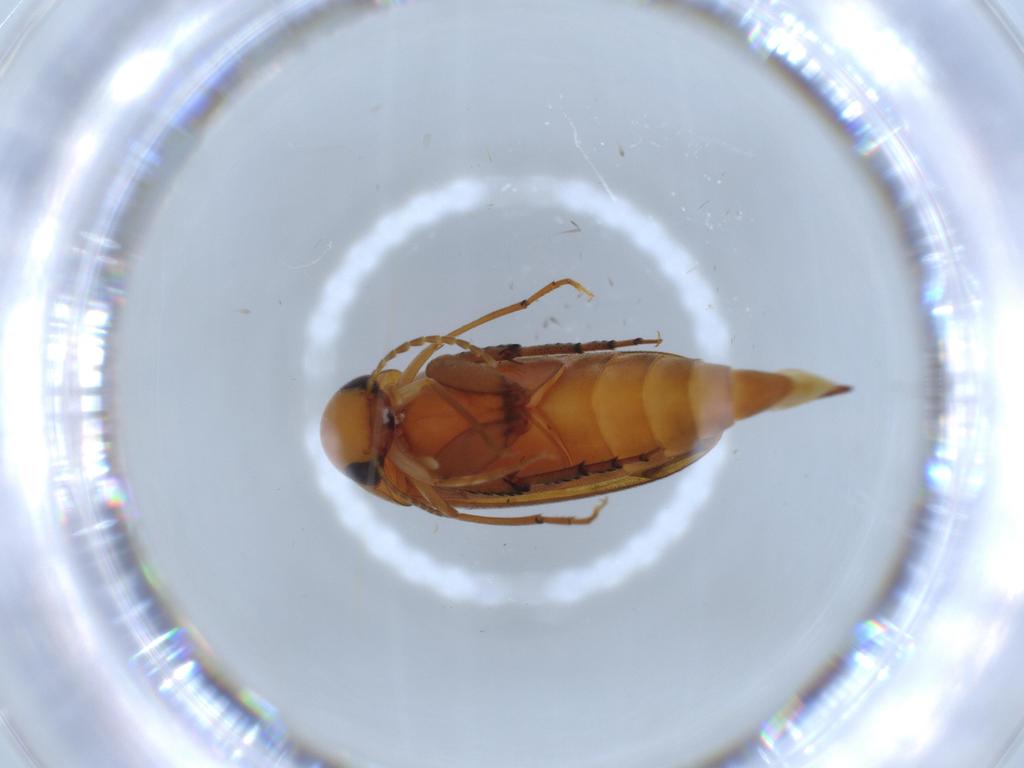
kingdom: Animalia
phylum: Arthropoda
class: Insecta
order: Coleoptera
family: Mordellidae
